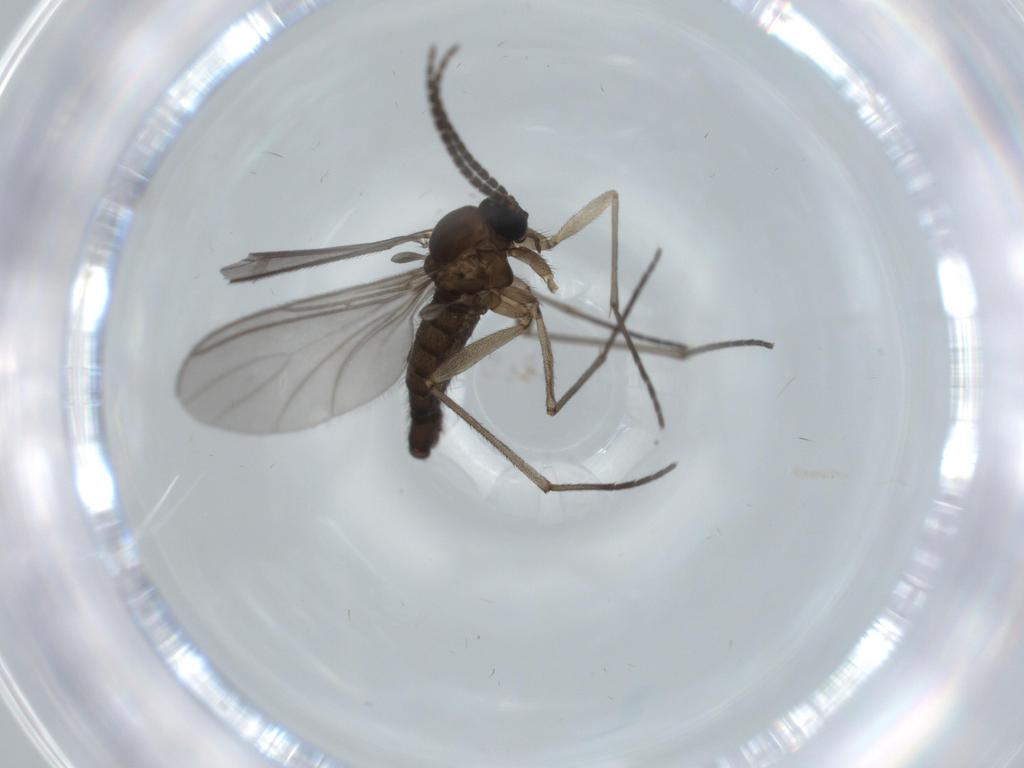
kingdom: Animalia
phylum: Arthropoda
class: Insecta
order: Diptera
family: Sciaridae
